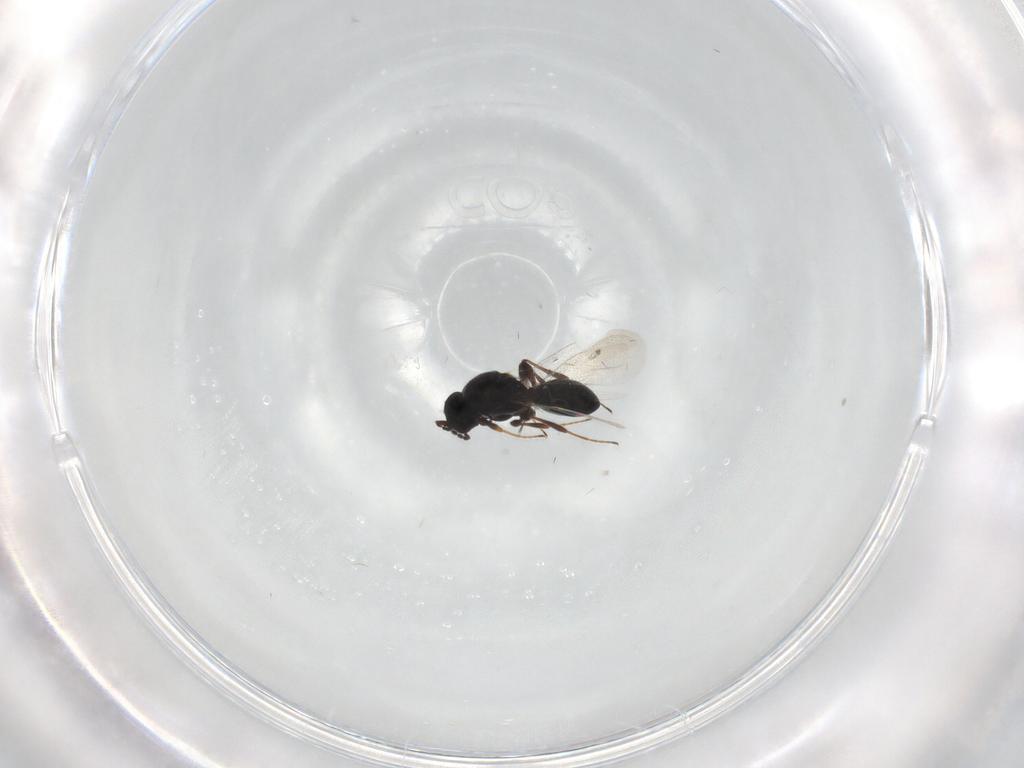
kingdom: Animalia
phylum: Arthropoda
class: Insecta
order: Hymenoptera
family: Platygastridae
